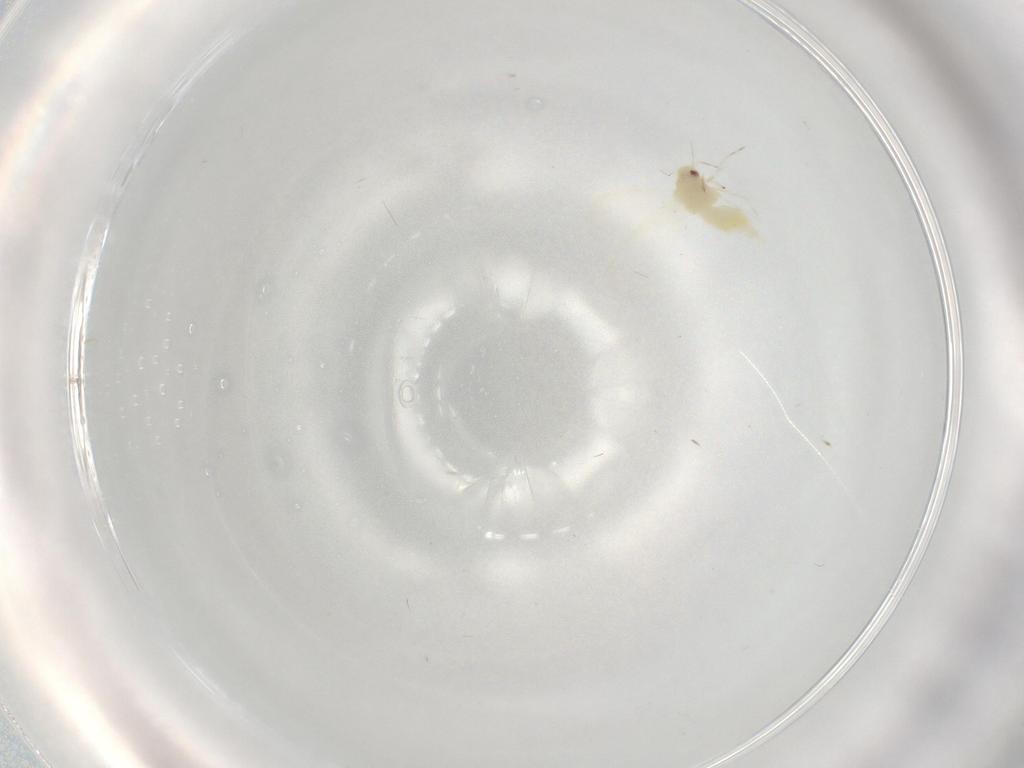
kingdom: Animalia
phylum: Arthropoda
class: Insecta
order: Hemiptera
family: Aleyrodidae
